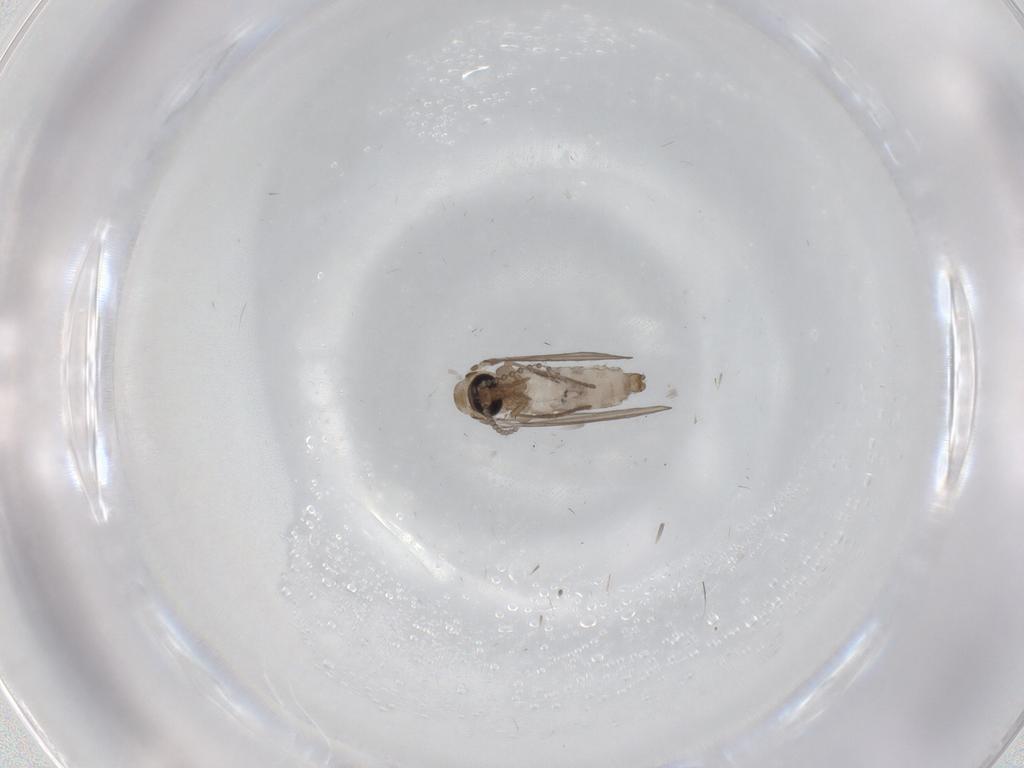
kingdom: Animalia
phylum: Arthropoda
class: Insecta
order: Diptera
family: Psychodidae
